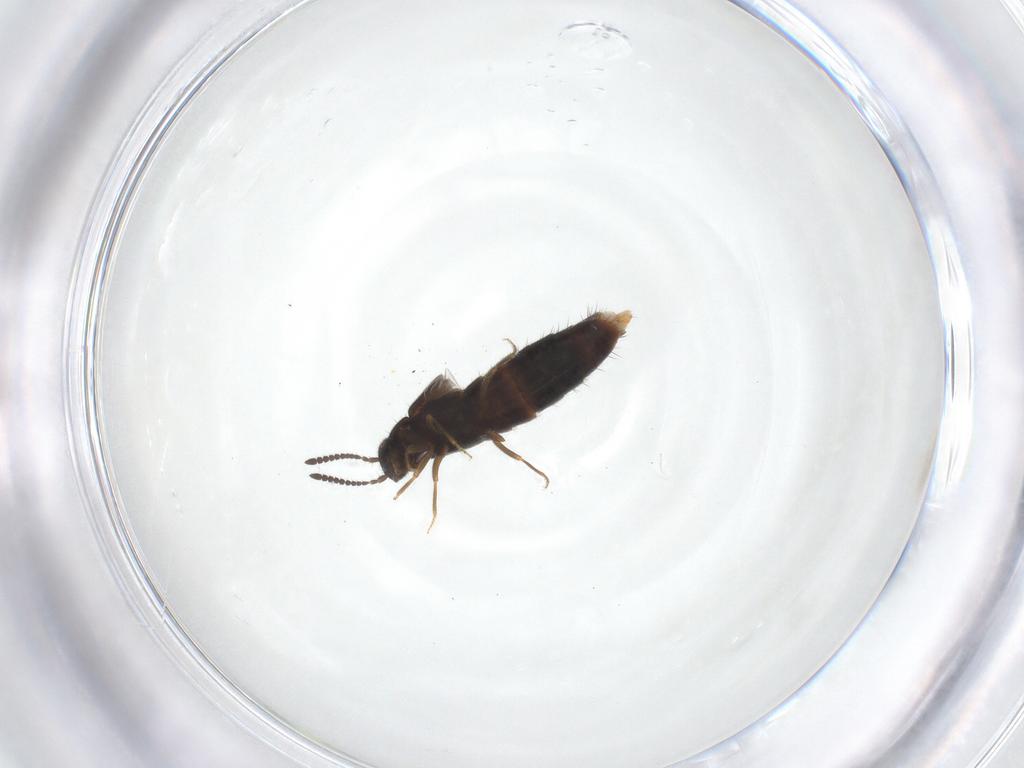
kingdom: Animalia
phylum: Arthropoda
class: Insecta
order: Coleoptera
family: Staphylinidae
